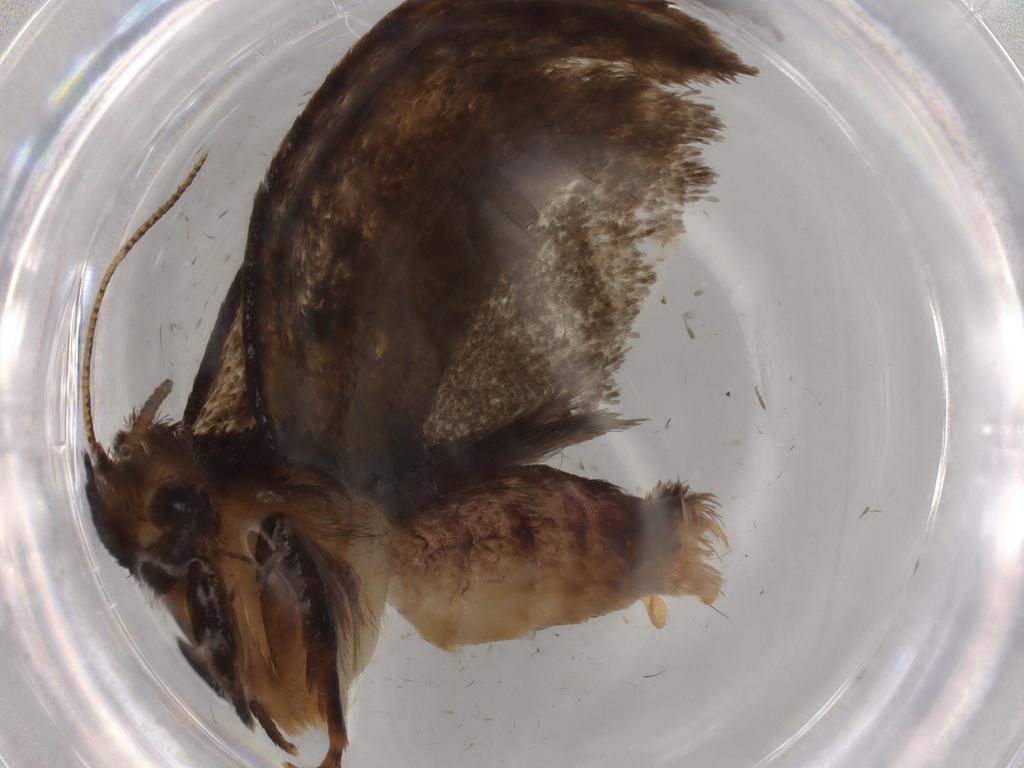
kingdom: Animalia
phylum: Arthropoda
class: Insecta
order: Lepidoptera
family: Tineidae
